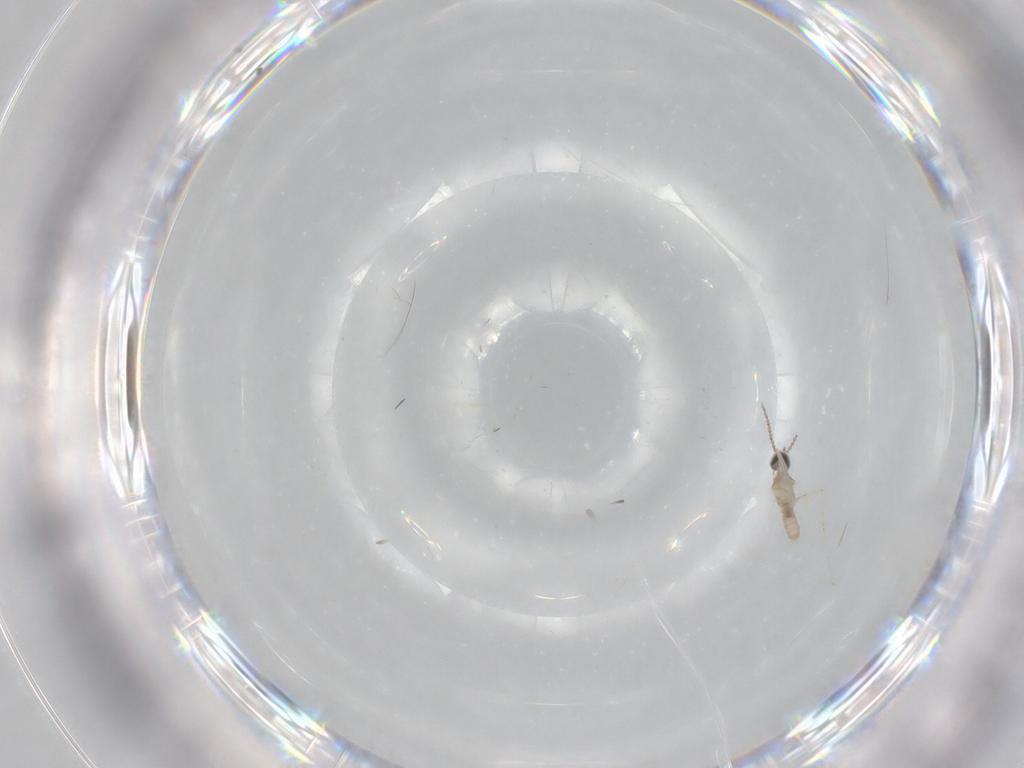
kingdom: Animalia
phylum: Arthropoda
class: Insecta
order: Diptera
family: Cecidomyiidae
